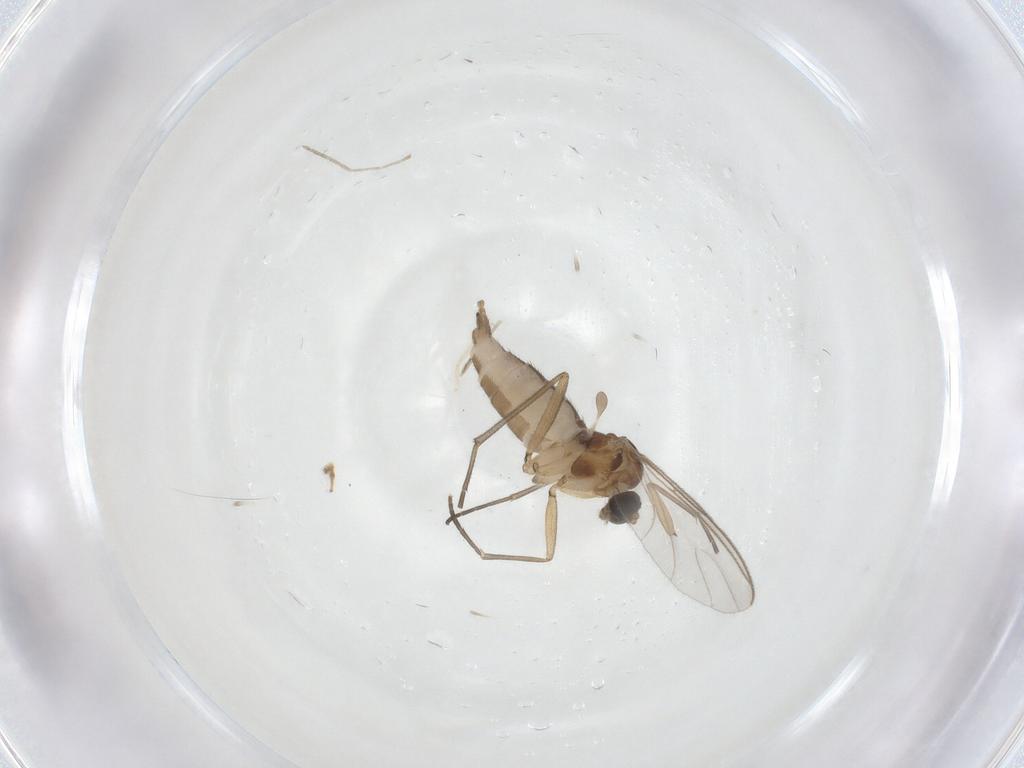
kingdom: Animalia
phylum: Arthropoda
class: Insecta
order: Diptera
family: Cecidomyiidae
